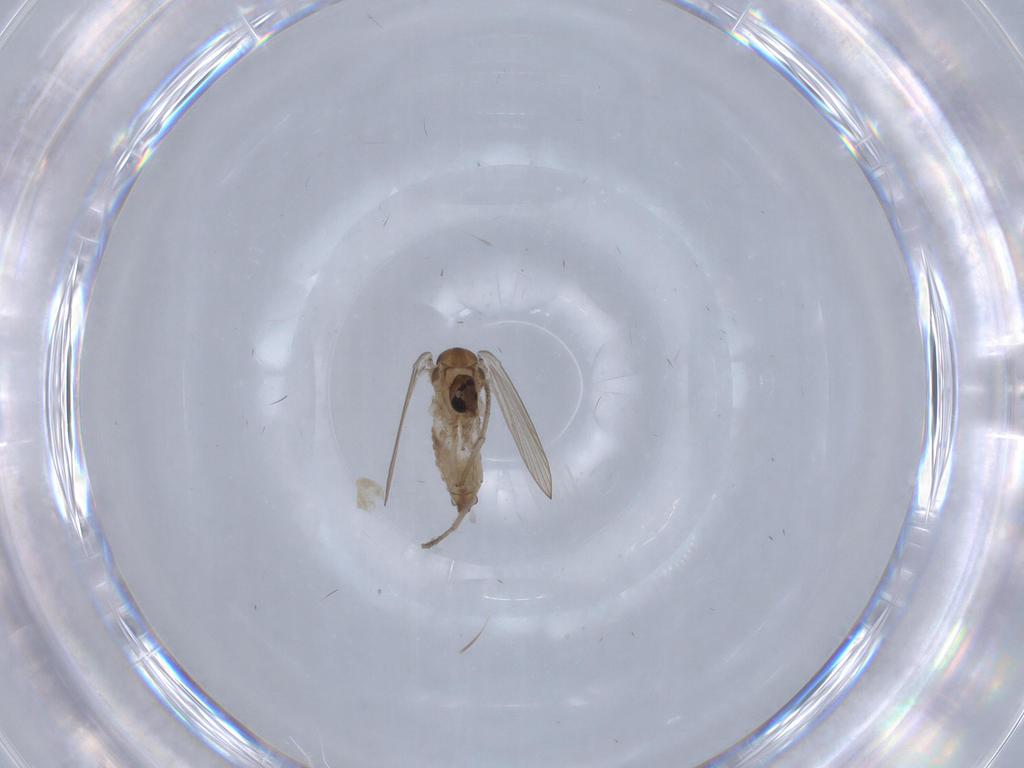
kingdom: Animalia
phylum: Arthropoda
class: Insecta
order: Diptera
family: Psychodidae
